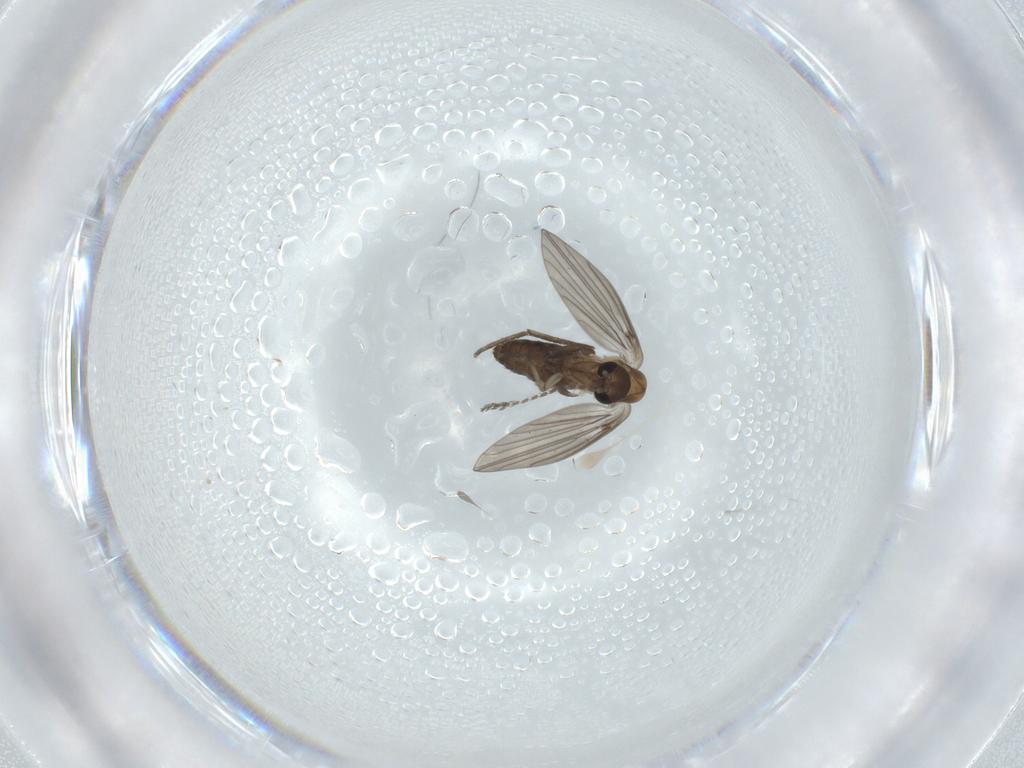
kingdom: Animalia
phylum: Arthropoda
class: Insecta
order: Diptera
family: Psychodidae
